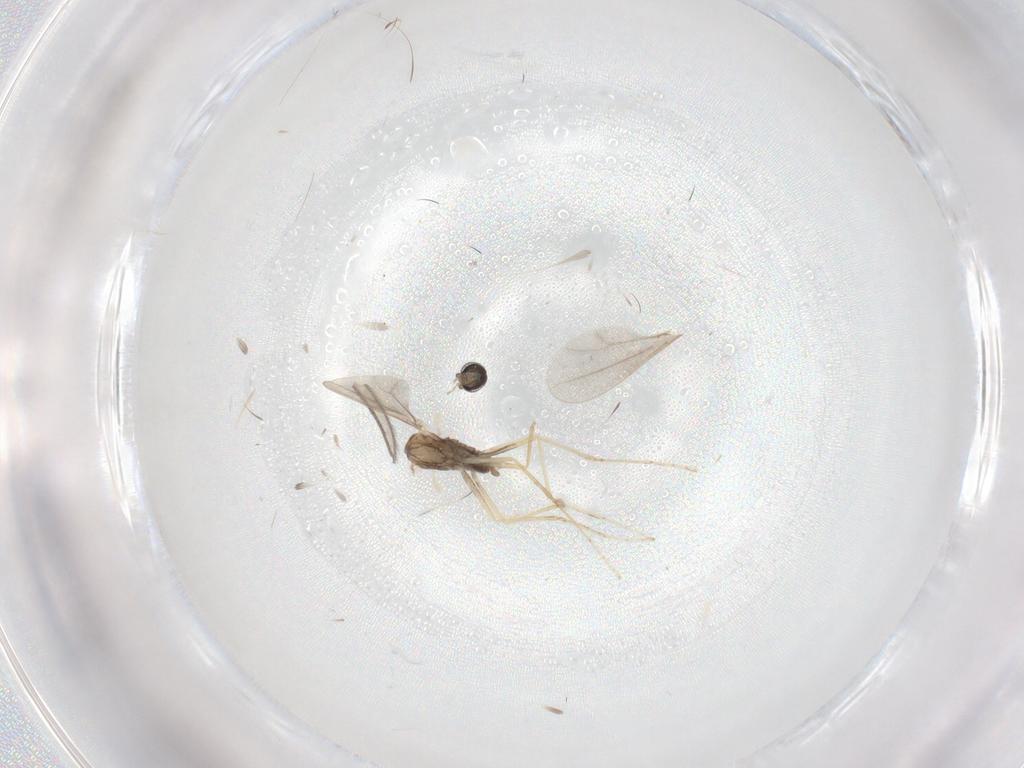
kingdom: Animalia
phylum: Arthropoda
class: Insecta
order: Diptera
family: Cecidomyiidae
